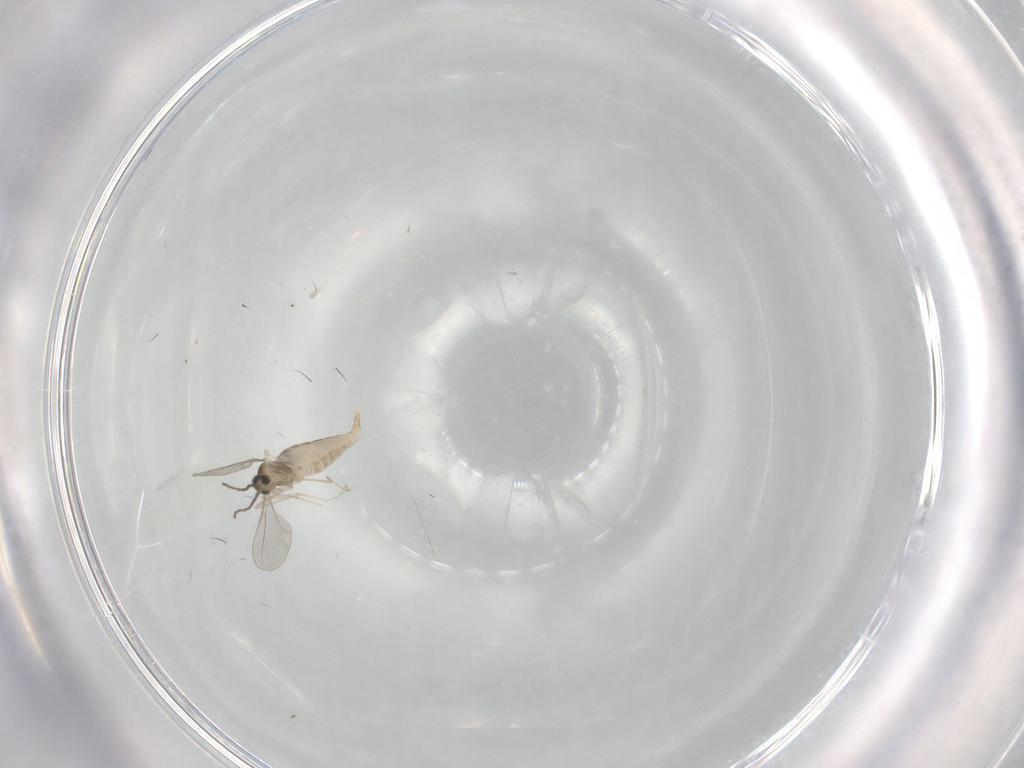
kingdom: Animalia
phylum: Arthropoda
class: Insecta
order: Diptera
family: Tipulidae
